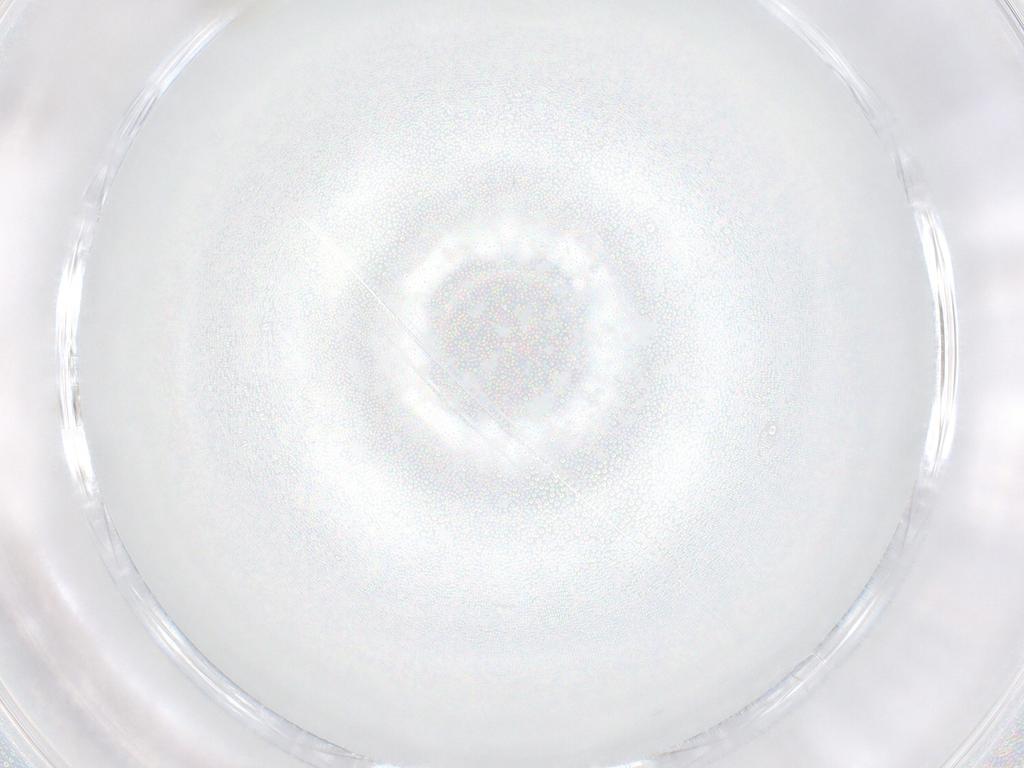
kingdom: Animalia
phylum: Arthropoda
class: Insecta
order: Diptera
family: Cecidomyiidae
